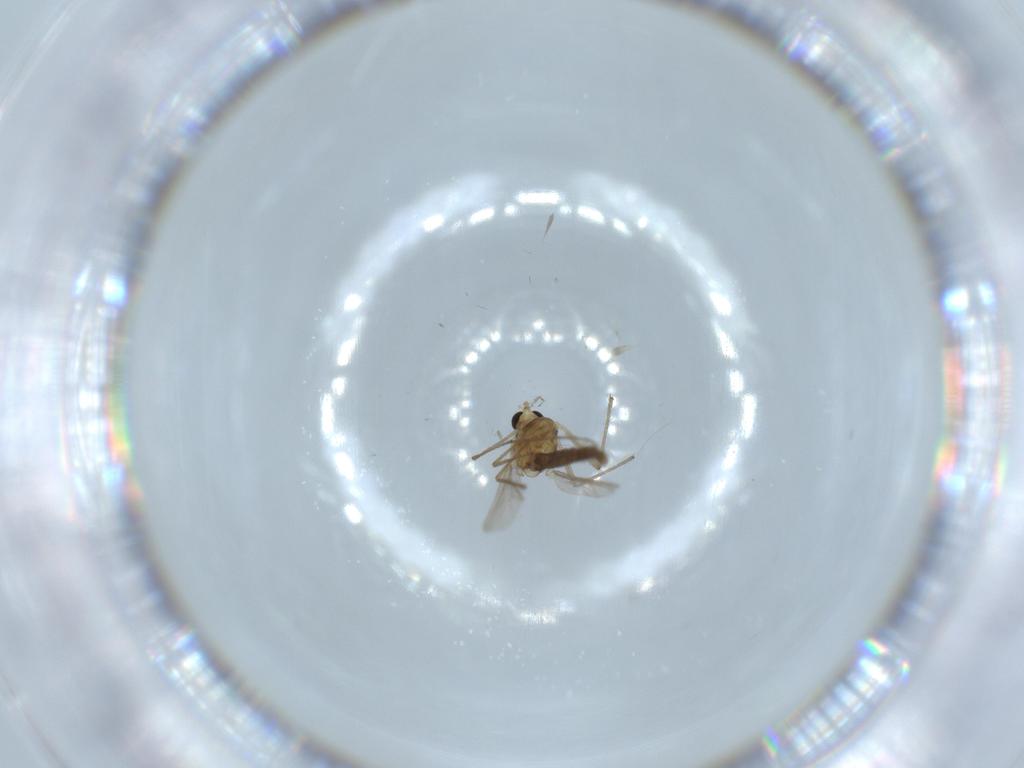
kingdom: Animalia
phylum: Arthropoda
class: Insecta
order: Diptera
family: Chironomidae
